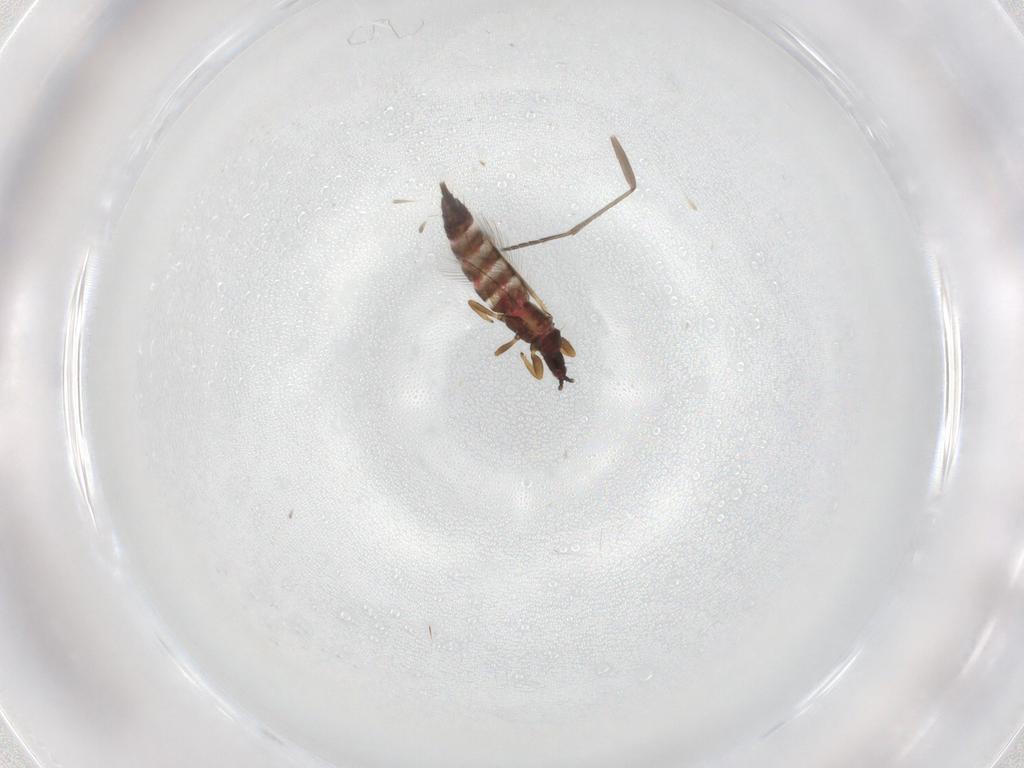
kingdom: Animalia
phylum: Arthropoda
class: Insecta
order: Thysanoptera
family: Phlaeothripidae
